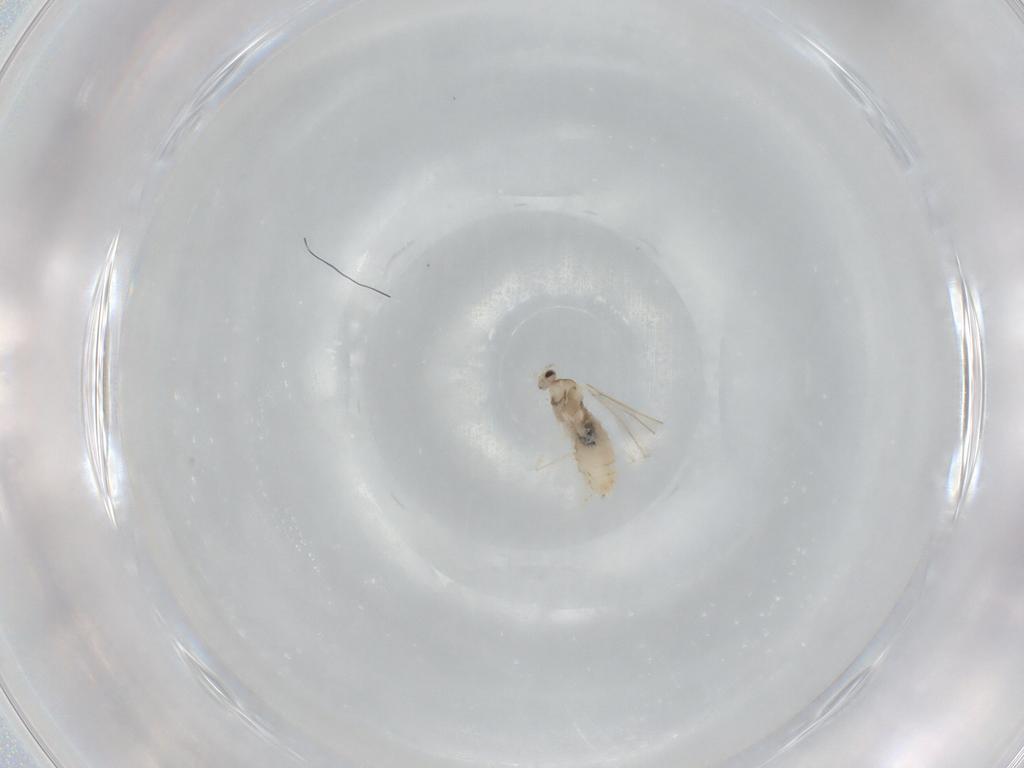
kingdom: Animalia
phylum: Arthropoda
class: Insecta
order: Diptera
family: Cecidomyiidae
